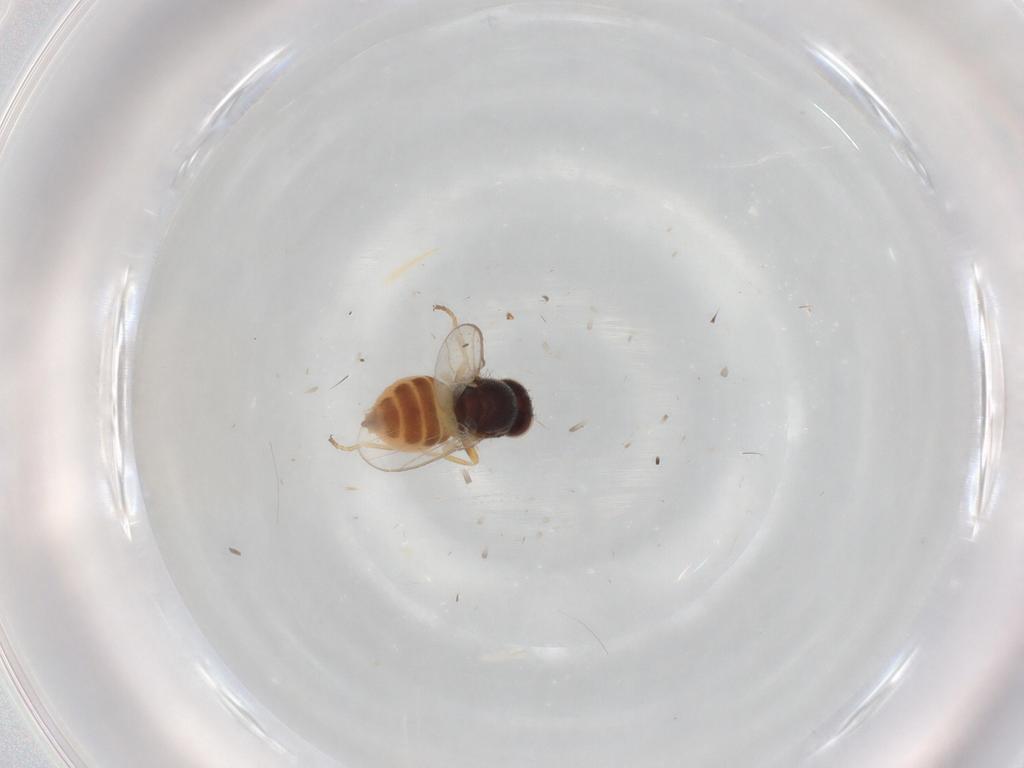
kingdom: Animalia
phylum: Arthropoda
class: Insecta
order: Diptera
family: Chloropidae
